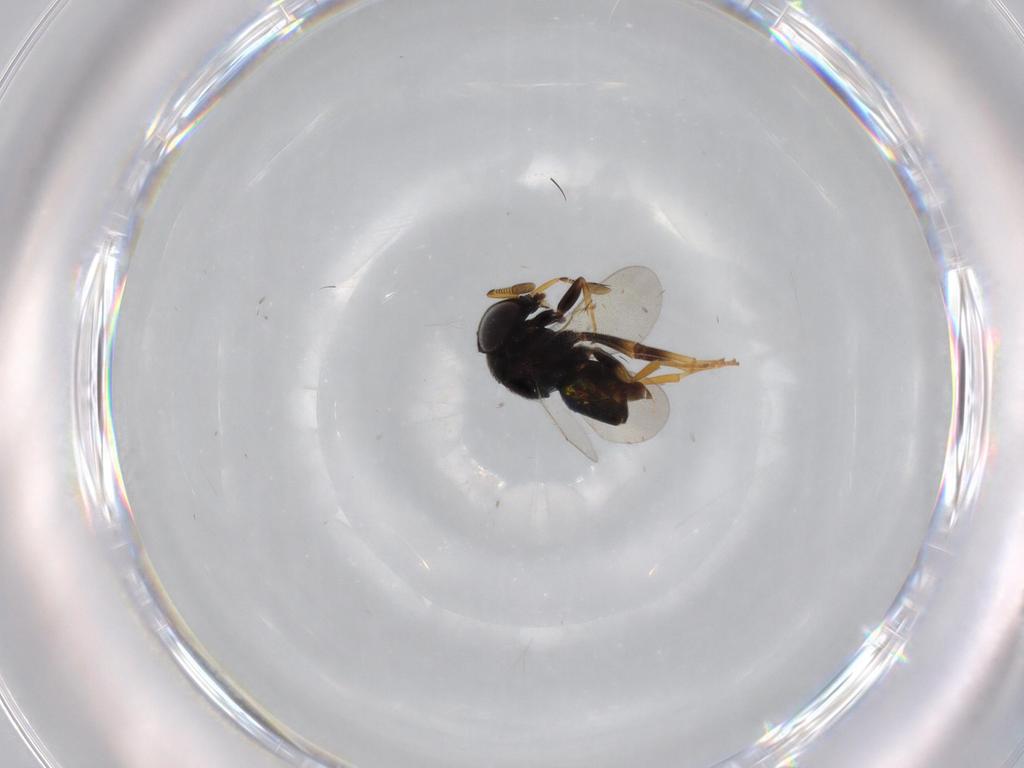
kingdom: Animalia
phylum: Arthropoda
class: Insecta
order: Hymenoptera
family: Encyrtidae
